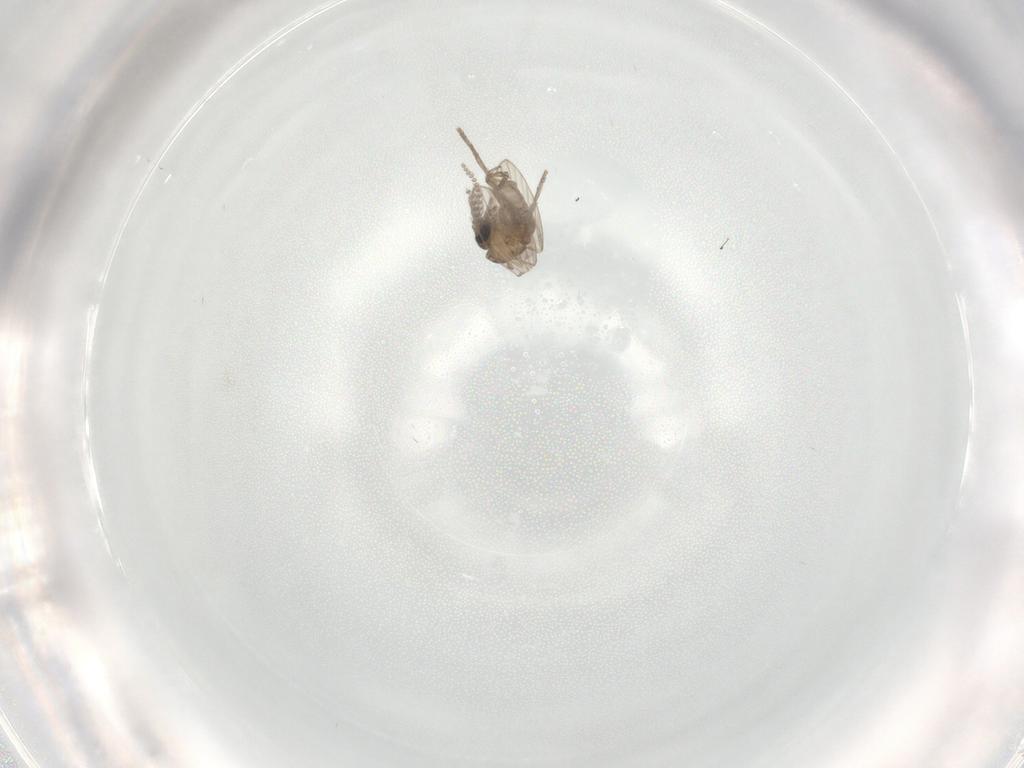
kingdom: Animalia
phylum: Arthropoda
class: Insecta
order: Diptera
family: Psychodidae
